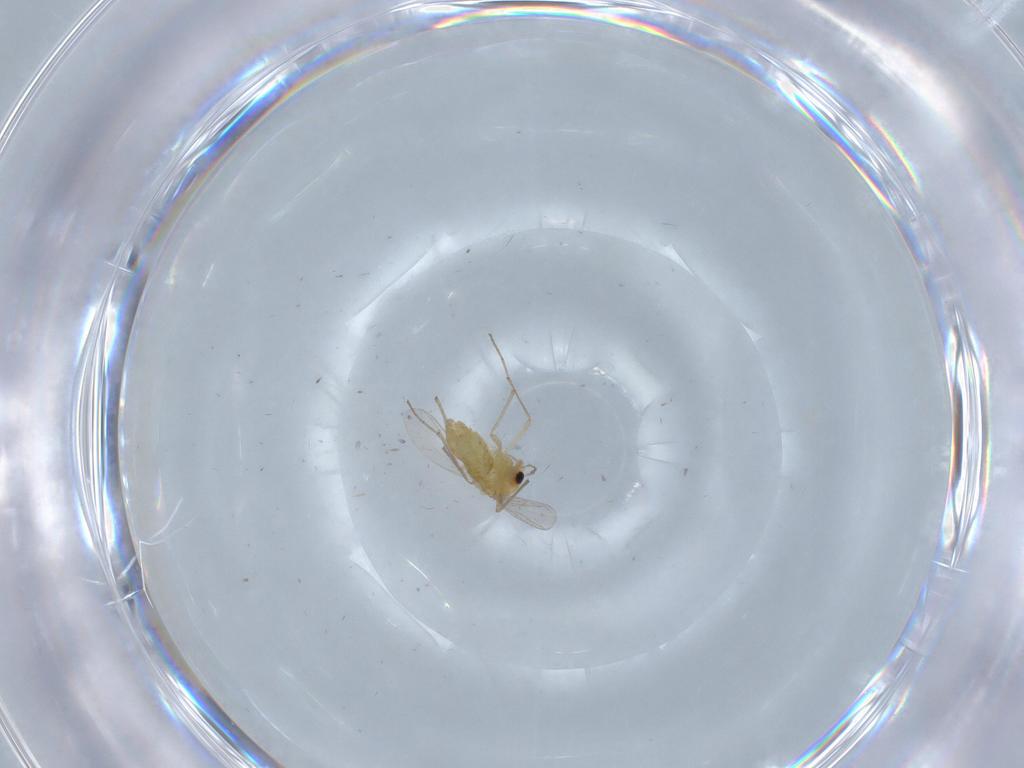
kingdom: Animalia
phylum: Arthropoda
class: Insecta
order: Diptera
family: Chironomidae
